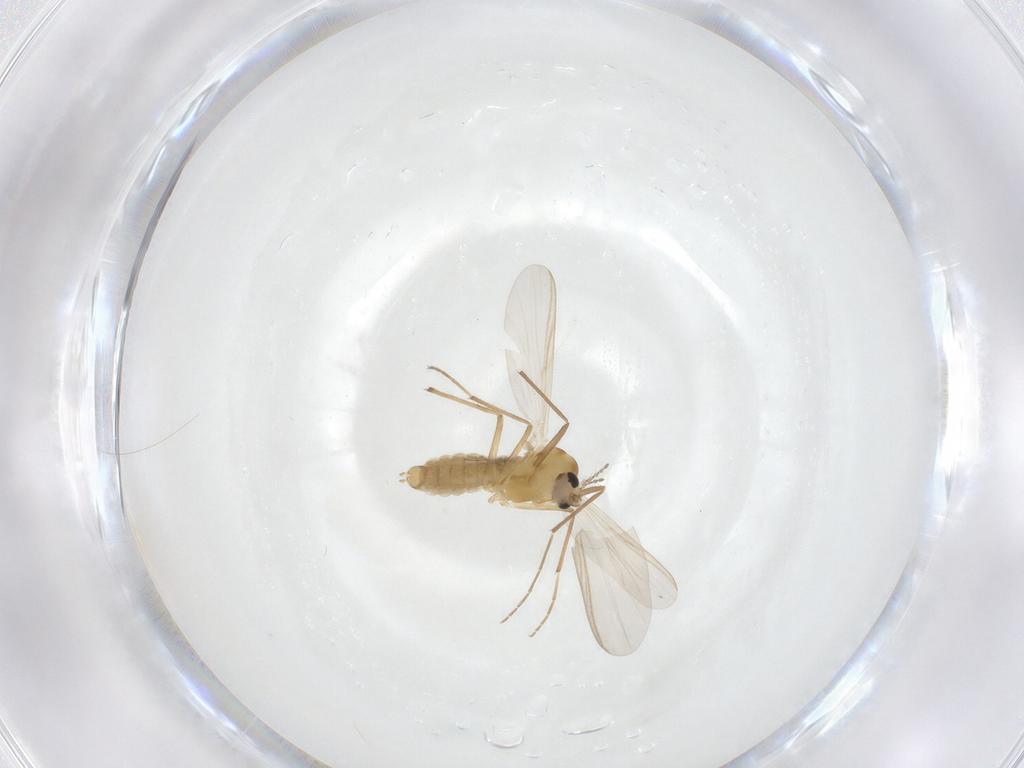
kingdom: Animalia
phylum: Arthropoda
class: Insecta
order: Diptera
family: Chironomidae
